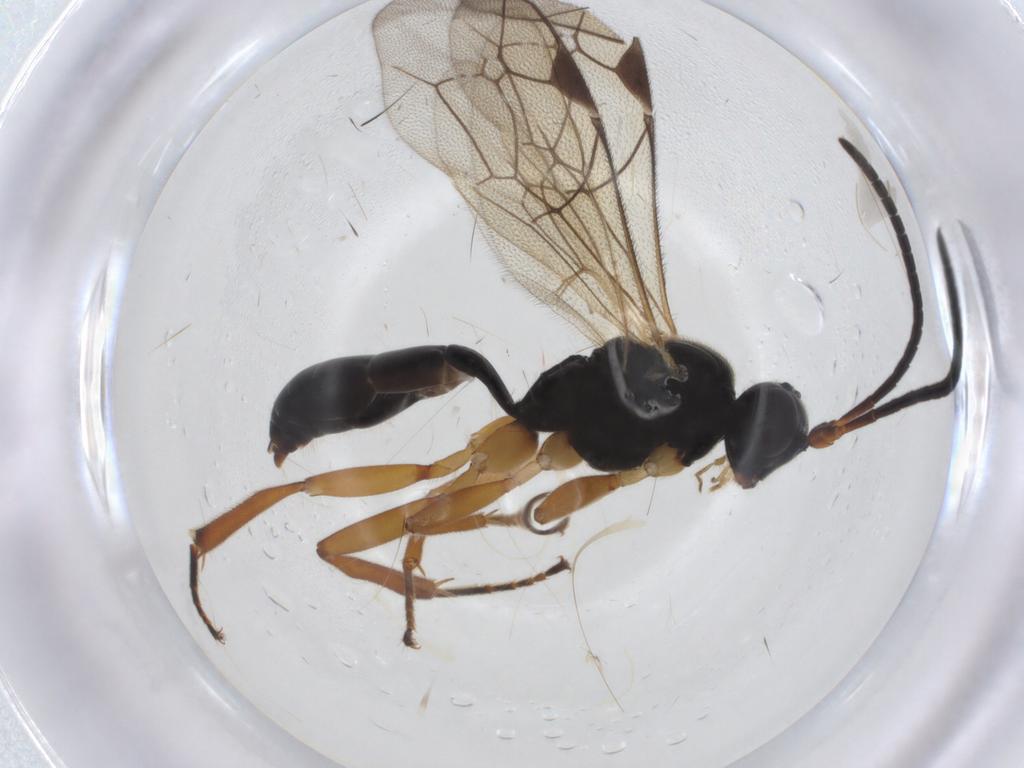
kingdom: Animalia
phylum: Arthropoda
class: Insecta
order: Hymenoptera
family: Ichneumonidae
